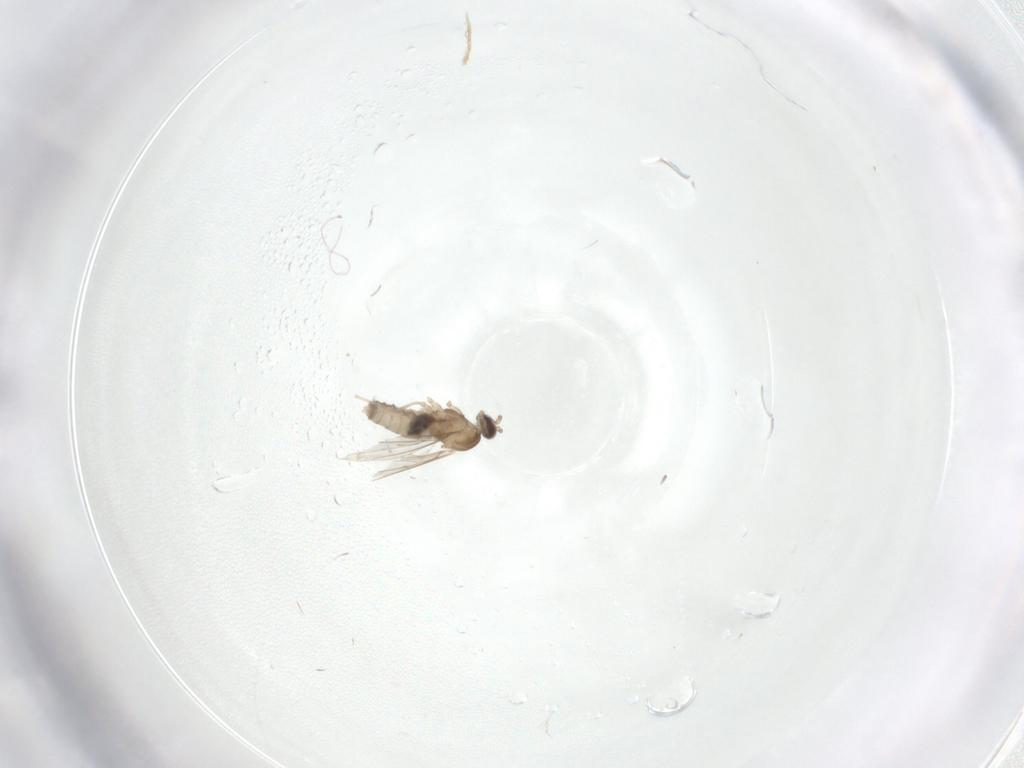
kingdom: Animalia
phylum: Arthropoda
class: Insecta
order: Diptera
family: Cecidomyiidae
